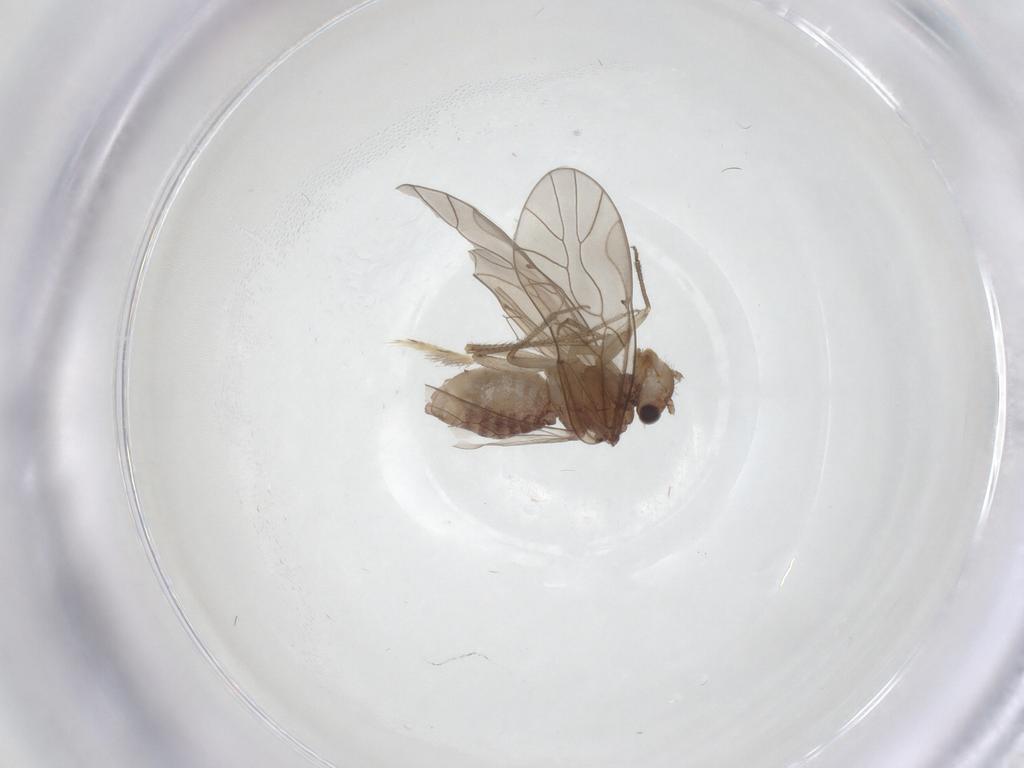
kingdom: Animalia
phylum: Arthropoda
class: Insecta
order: Psocodea
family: Caeciliusidae
